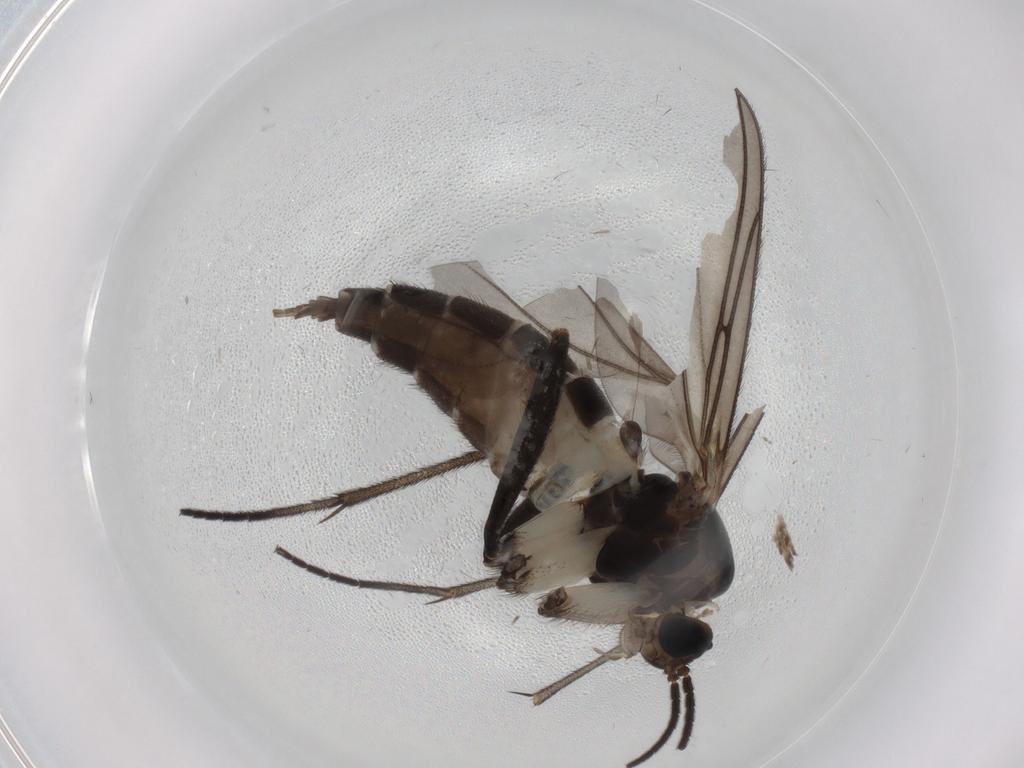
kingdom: Animalia
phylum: Arthropoda
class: Insecta
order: Diptera
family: Sciaridae
